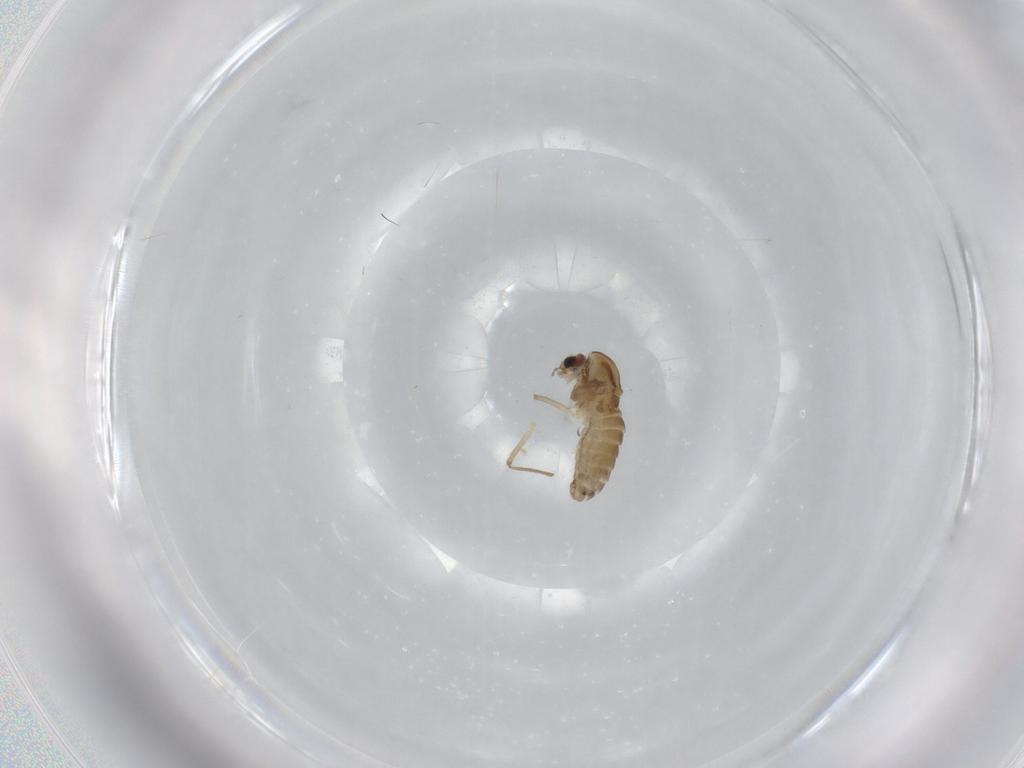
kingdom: Animalia
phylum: Arthropoda
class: Insecta
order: Diptera
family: Chironomidae
